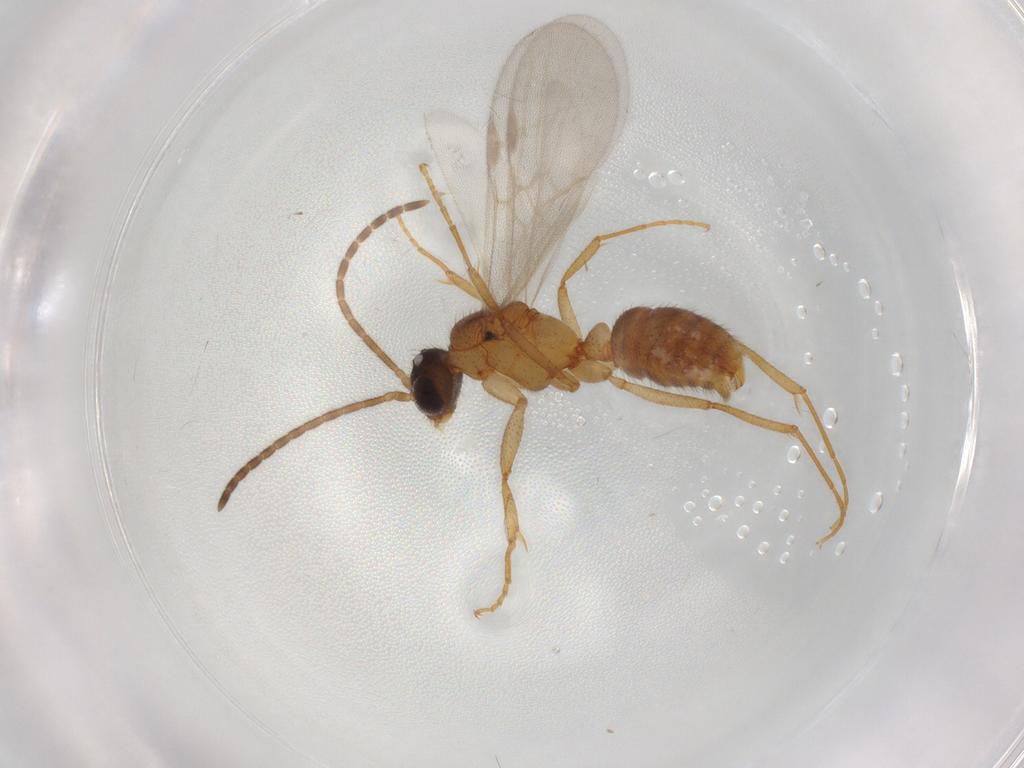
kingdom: Animalia
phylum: Arthropoda
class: Insecta
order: Hymenoptera
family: Formicidae
